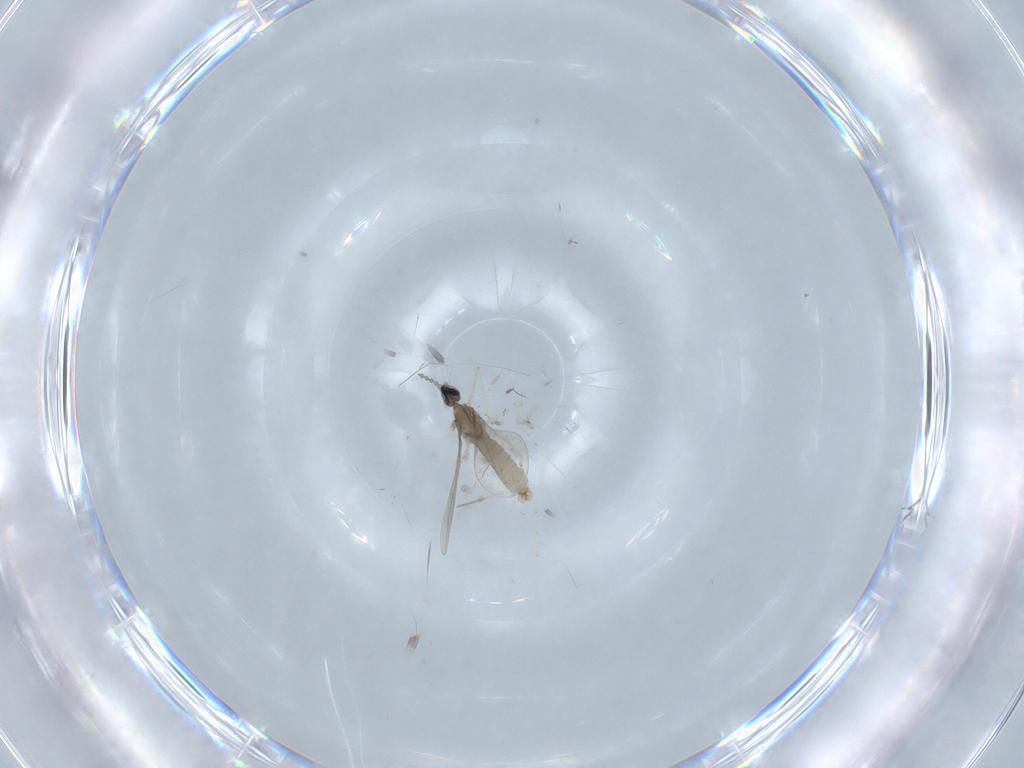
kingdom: Animalia
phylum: Arthropoda
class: Insecta
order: Diptera
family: Cecidomyiidae
